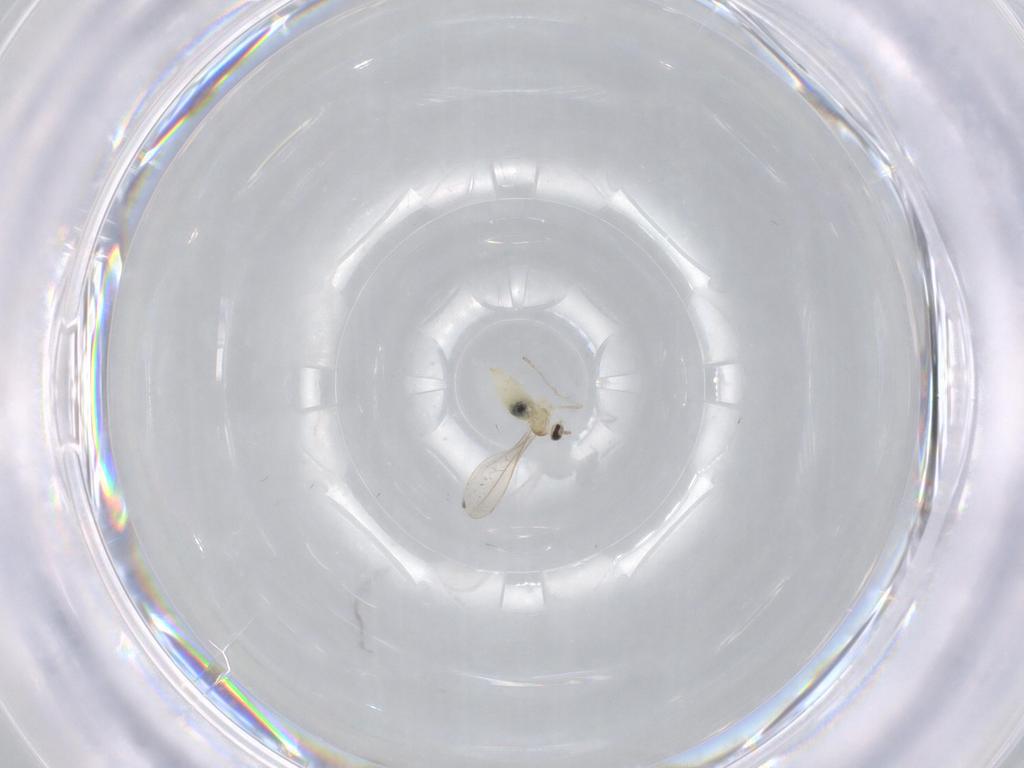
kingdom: Animalia
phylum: Arthropoda
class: Insecta
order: Diptera
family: Cecidomyiidae
